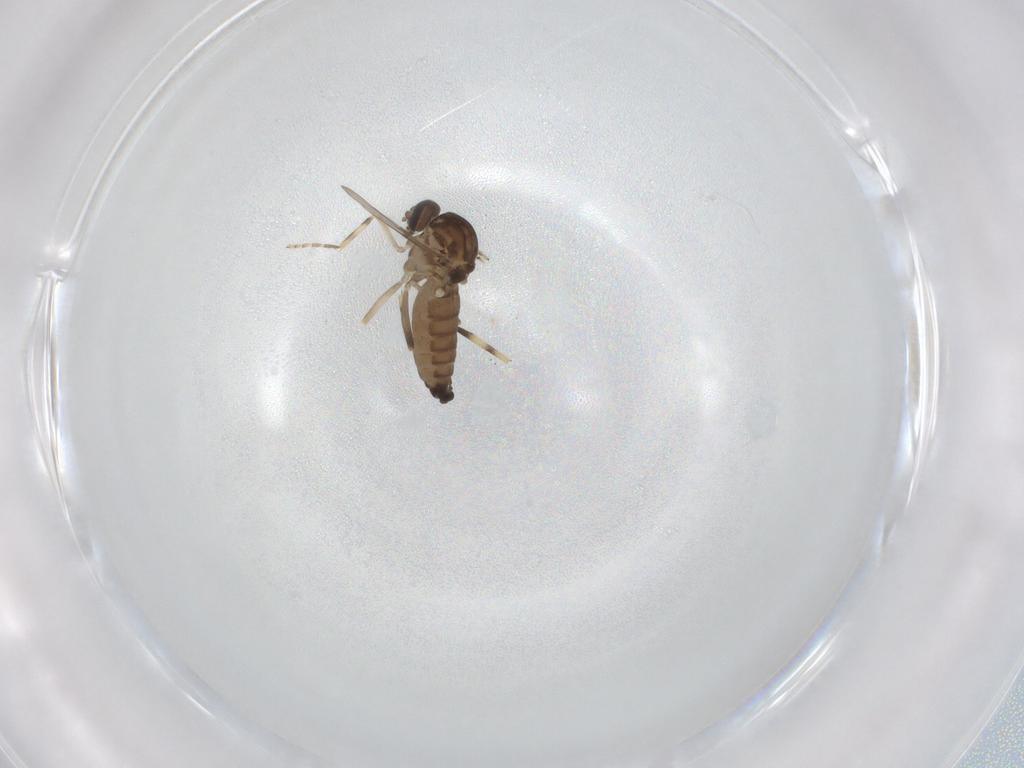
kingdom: Animalia
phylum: Arthropoda
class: Insecta
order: Diptera
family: Ceratopogonidae
